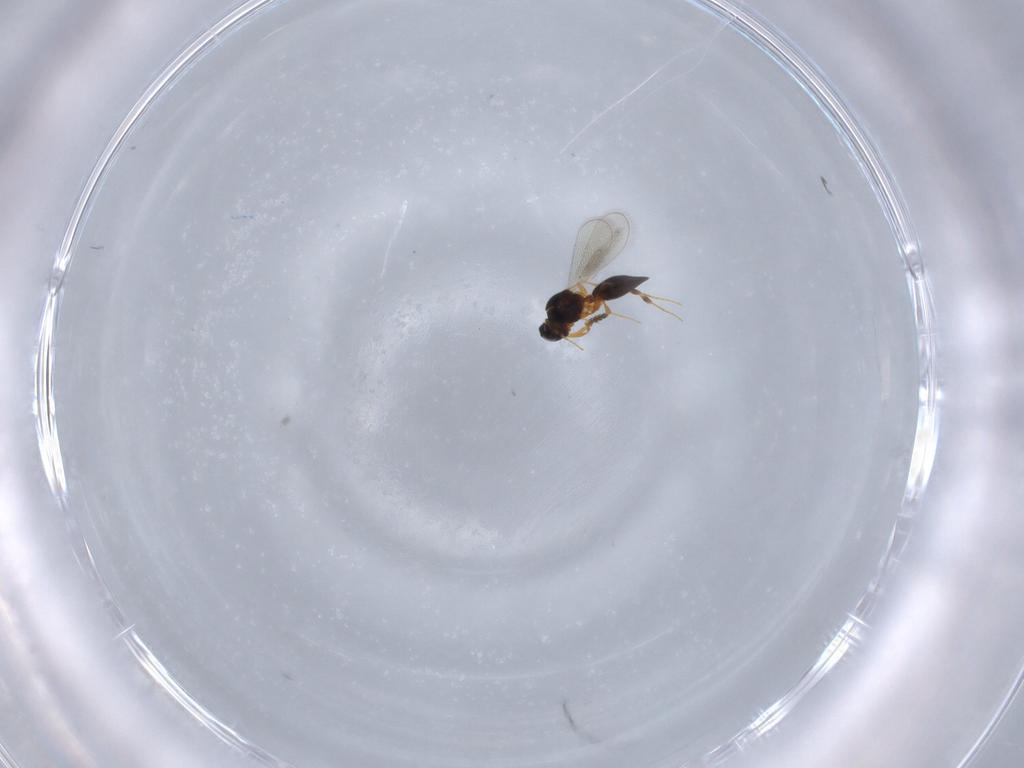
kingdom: Animalia
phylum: Arthropoda
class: Insecta
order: Hymenoptera
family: Platygastridae
